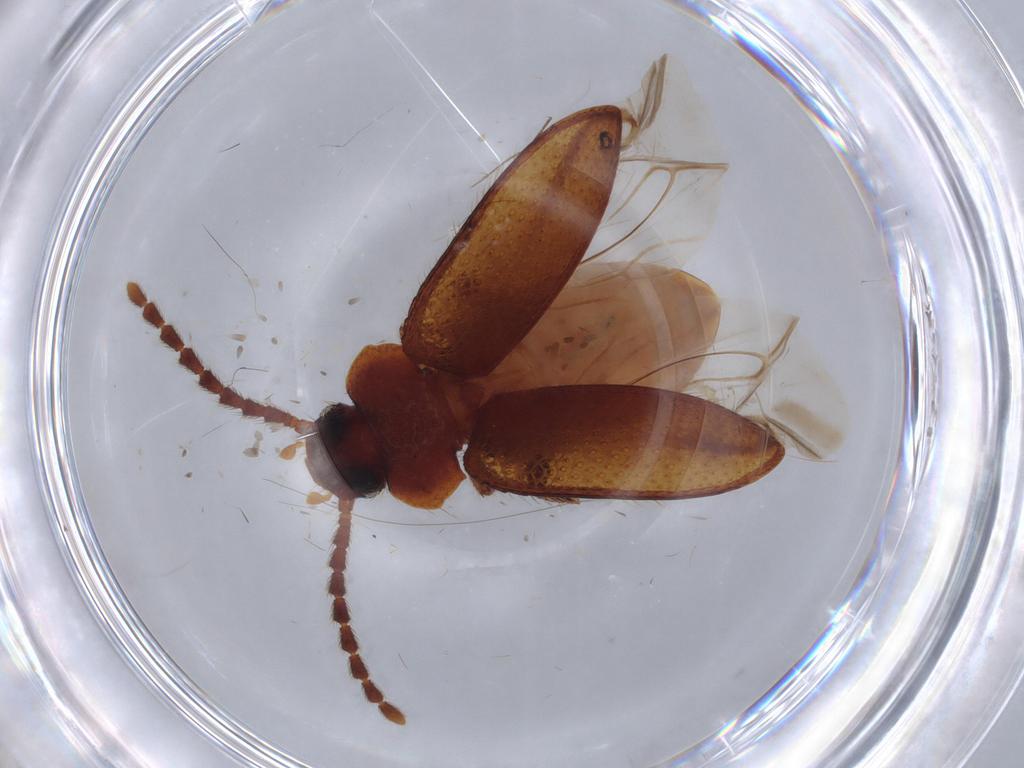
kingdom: Animalia
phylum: Arthropoda
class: Insecta
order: Coleoptera
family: Tenebrionidae
